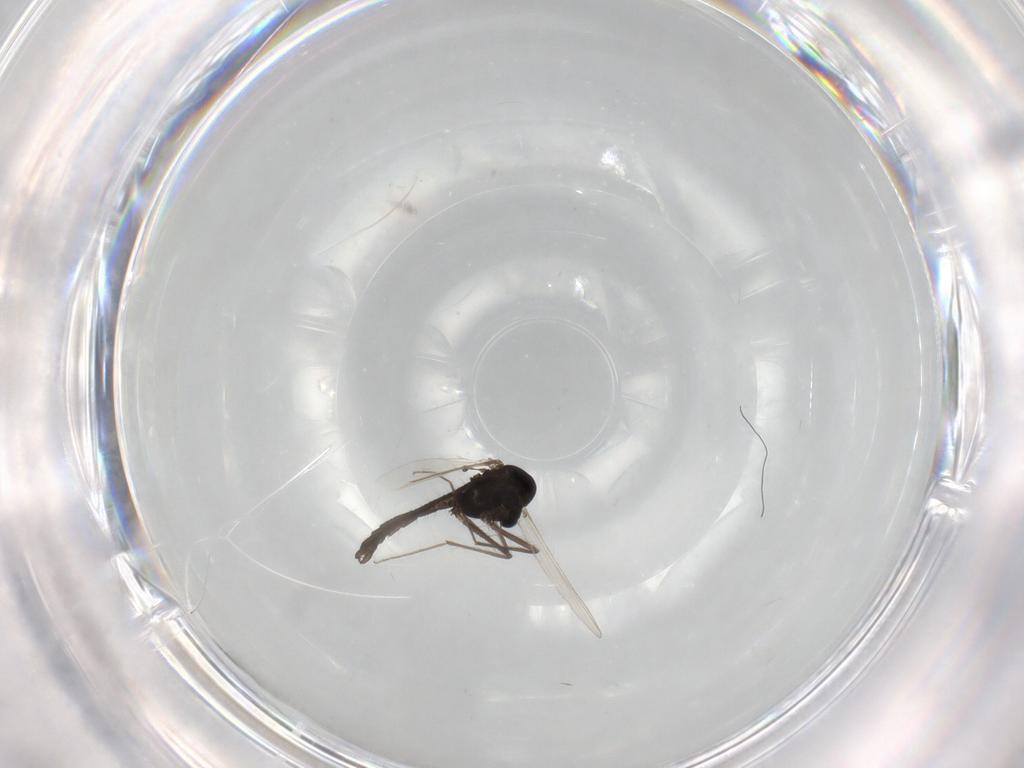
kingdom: Animalia
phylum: Arthropoda
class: Insecta
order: Diptera
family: Chironomidae
